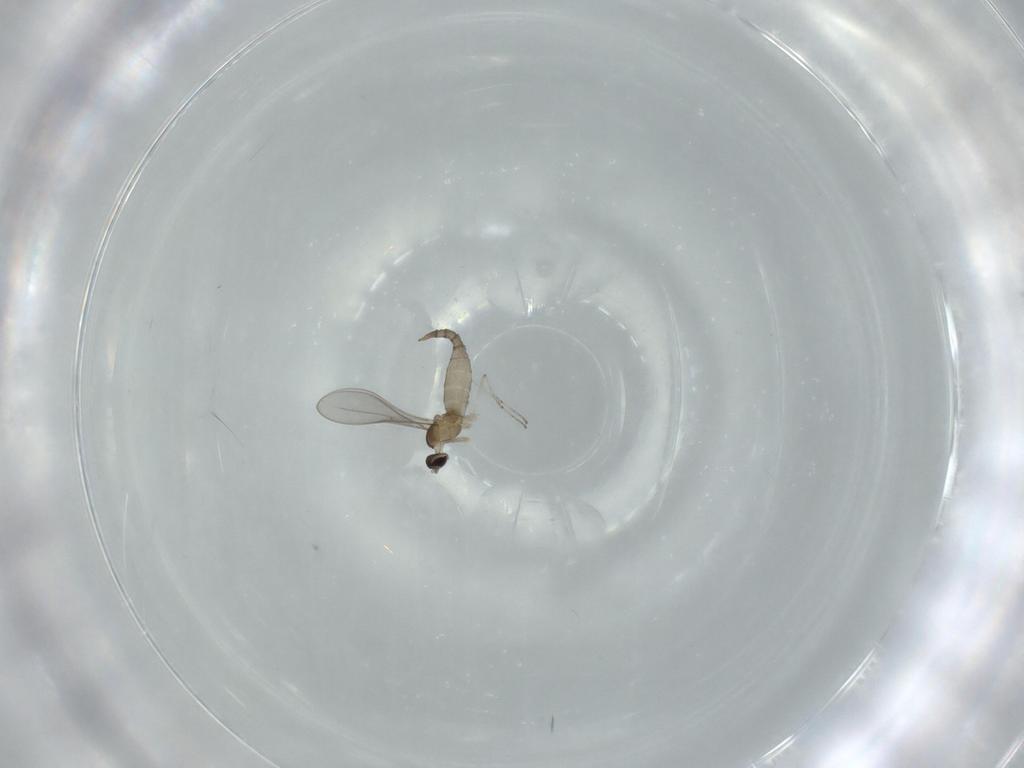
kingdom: Animalia
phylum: Arthropoda
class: Insecta
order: Diptera
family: Cecidomyiidae
